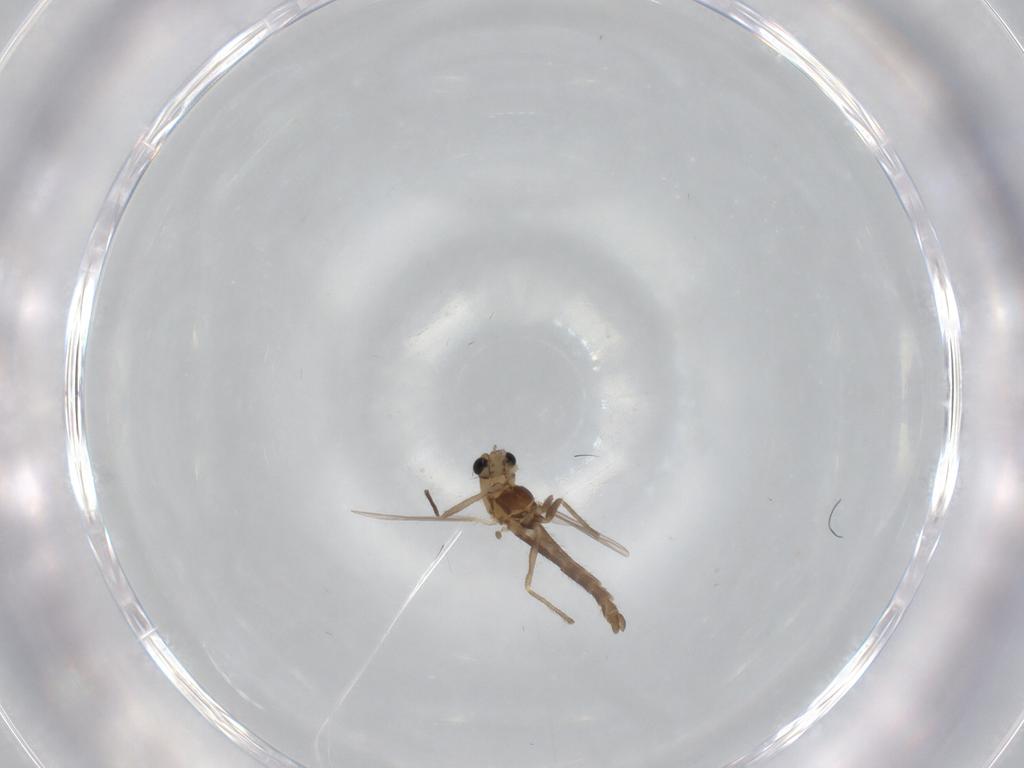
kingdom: Animalia
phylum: Arthropoda
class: Insecta
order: Diptera
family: Chironomidae
